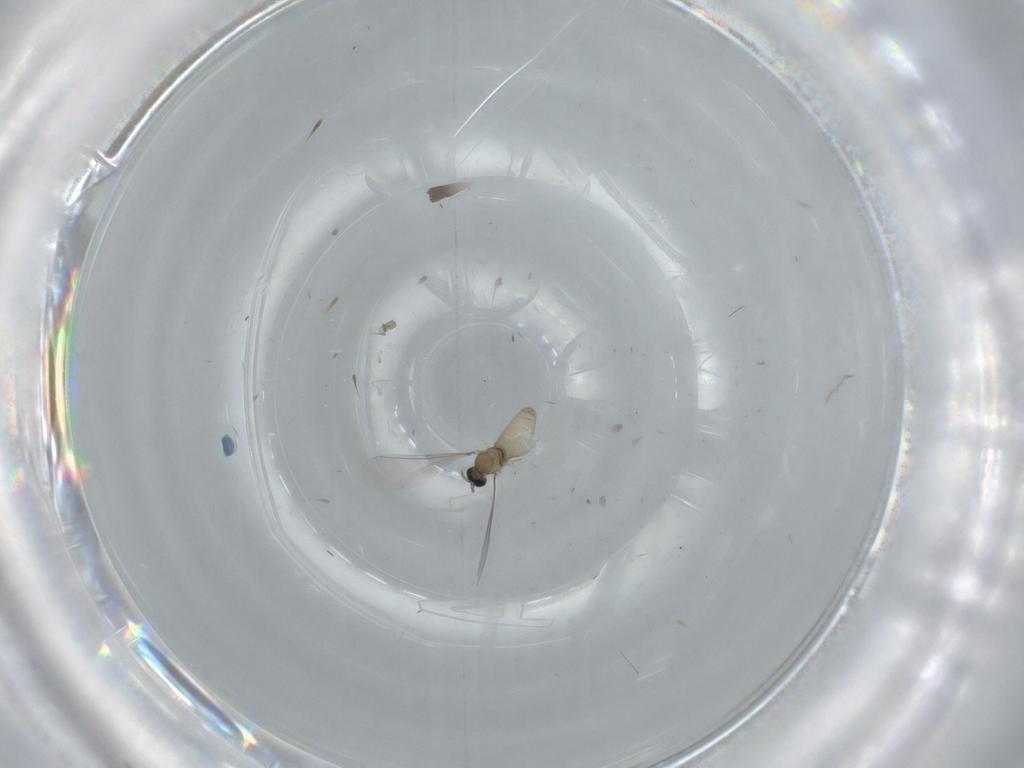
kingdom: Animalia
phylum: Arthropoda
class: Insecta
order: Diptera
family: Cecidomyiidae
